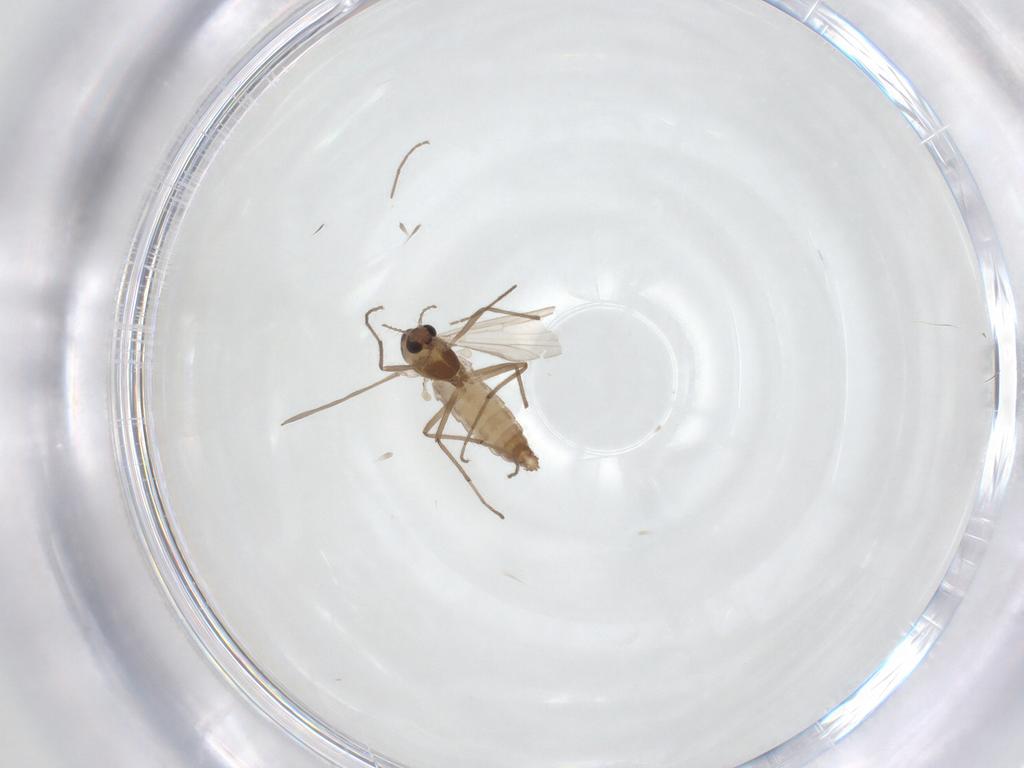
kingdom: Animalia
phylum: Arthropoda
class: Insecta
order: Diptera
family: Chironomidae
